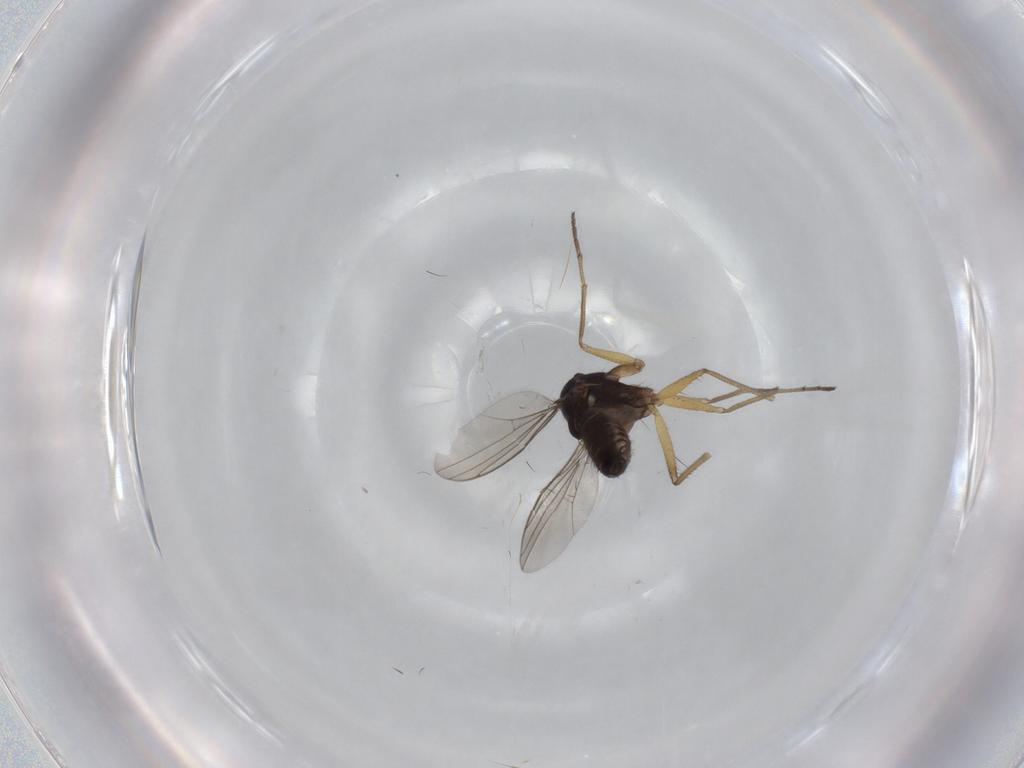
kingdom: Animalia
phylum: Arthropoda
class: Insecta
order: Diptera
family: Dolichopodidae
